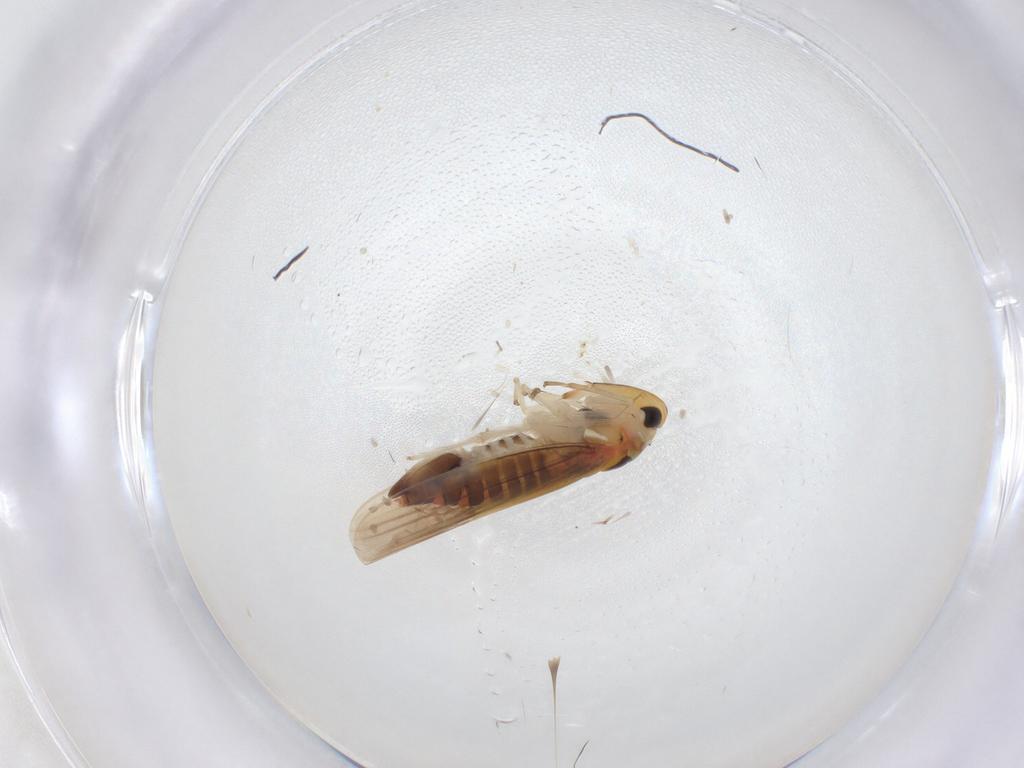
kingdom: Animalia
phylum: Arthropoda
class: Insecta
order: Hemiptera
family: Cicadellidae
